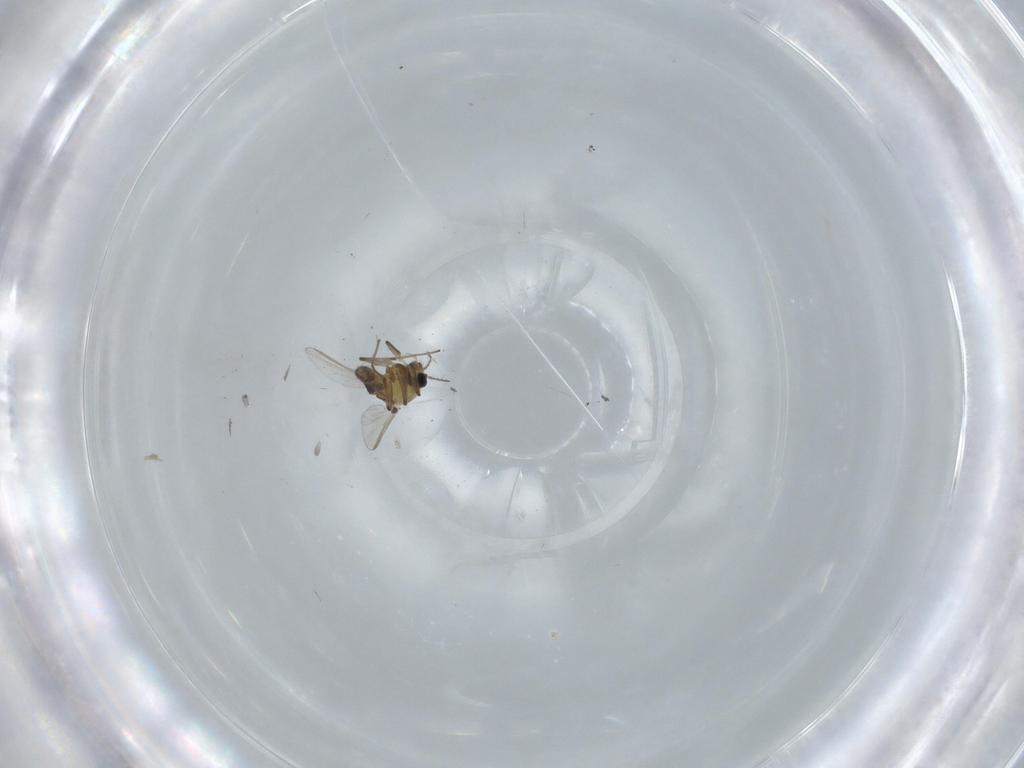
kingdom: Animalia
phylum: Arthropoda
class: Insecta
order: Diptera
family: Chironomidae
